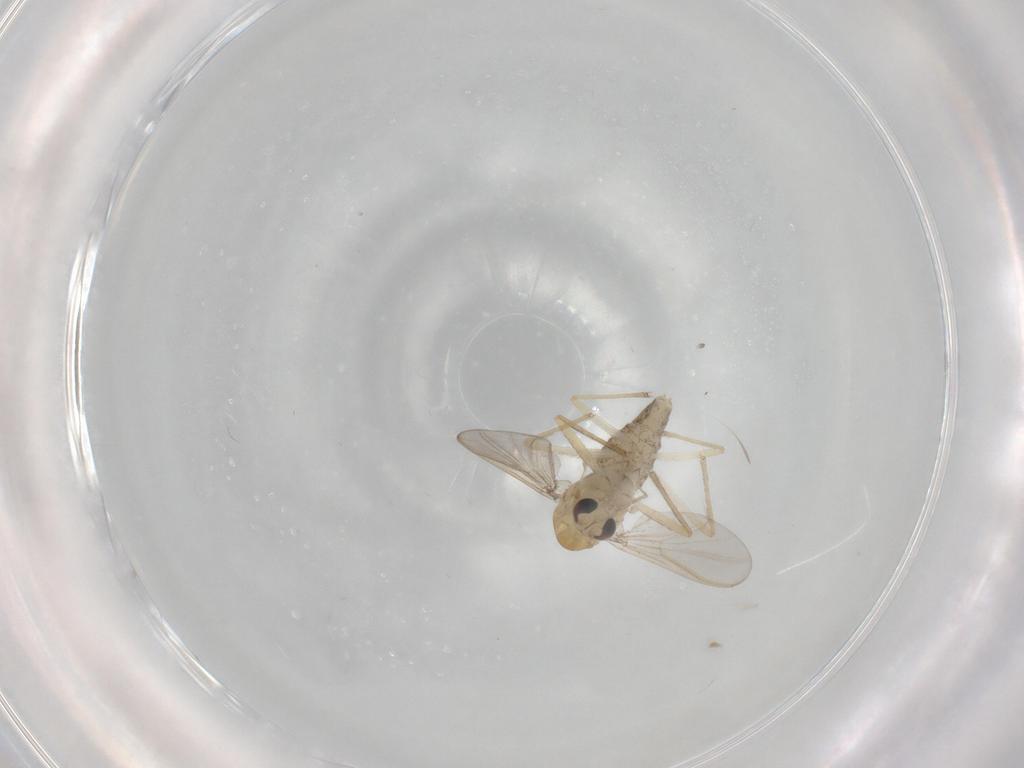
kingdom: Animalia
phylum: Arthropoda
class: Insecta
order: Diptera
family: Chironomidae
